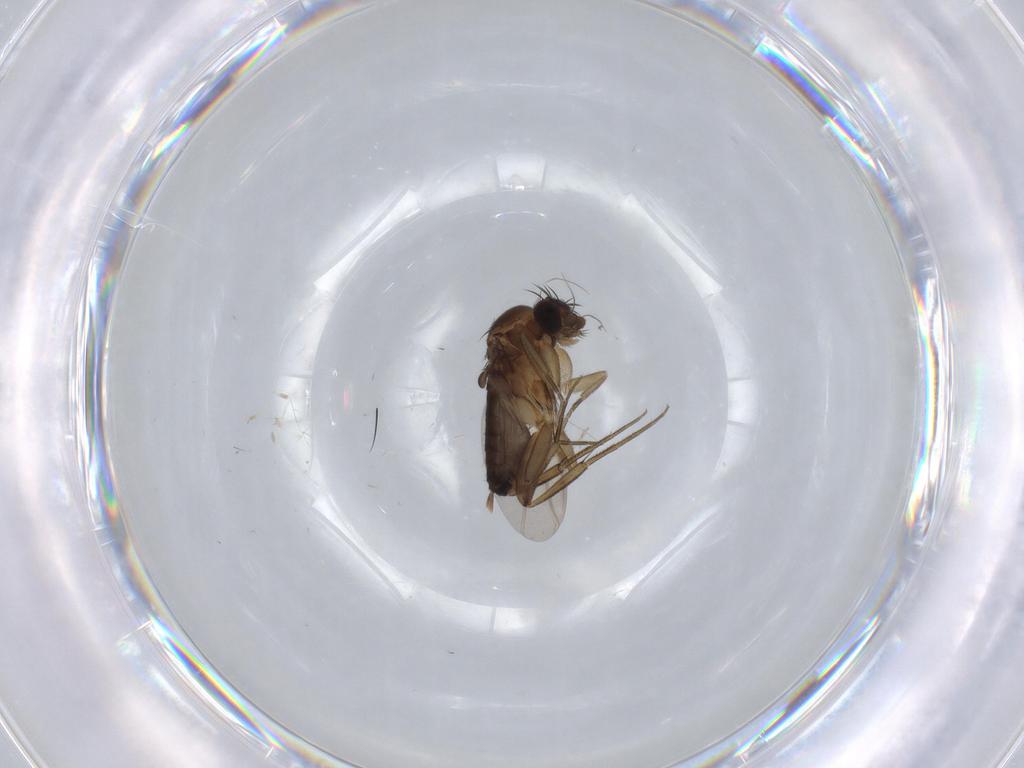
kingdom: Animalia
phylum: Arthropoda
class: Insecta
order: Diptera
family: Phoridae
